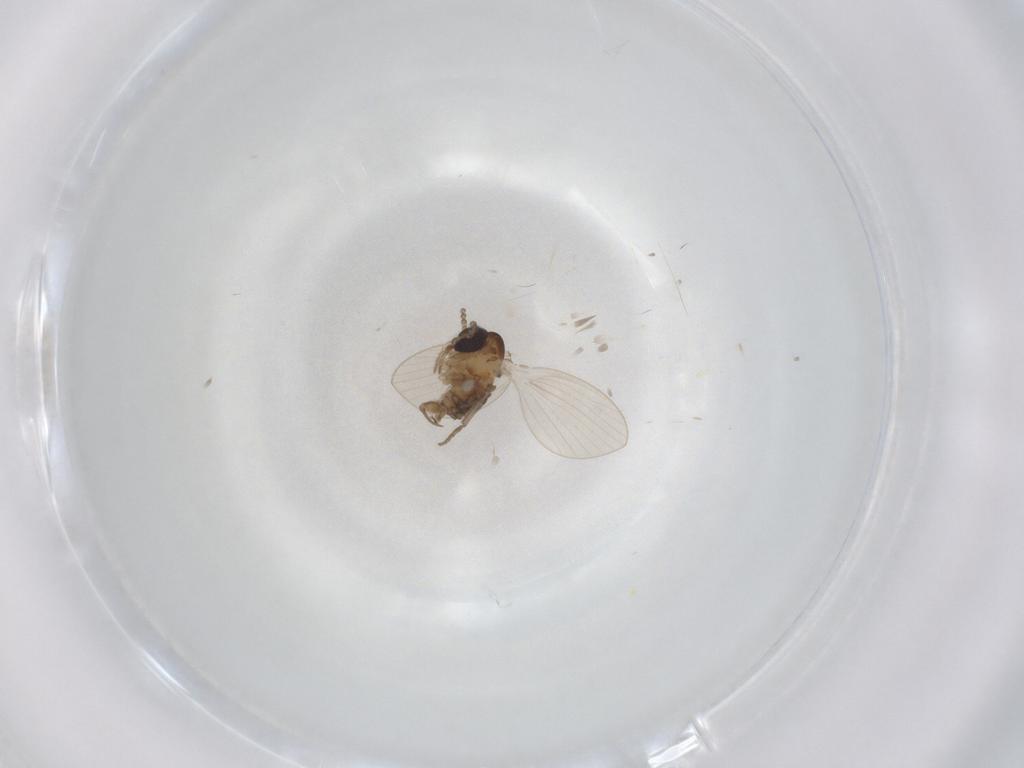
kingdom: Animalia
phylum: Arthropoda
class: Insecta
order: Diptera
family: Psychodidae
